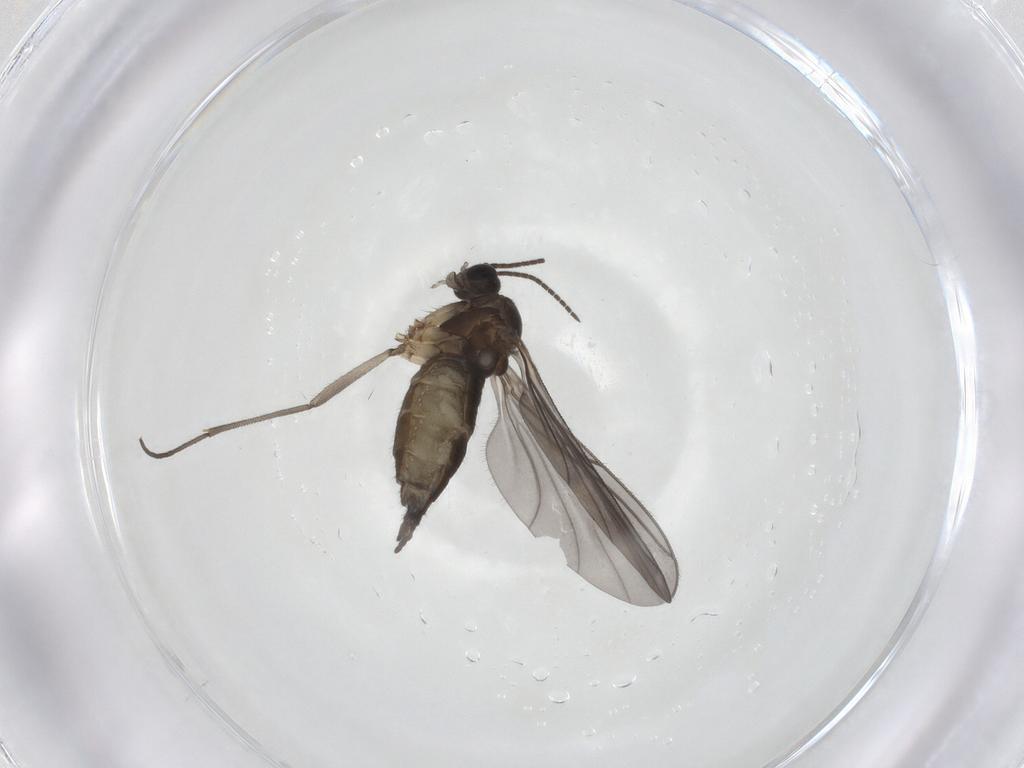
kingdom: Animalia
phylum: Arthropoda
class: Insecta
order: Diptera
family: Sciaridae
